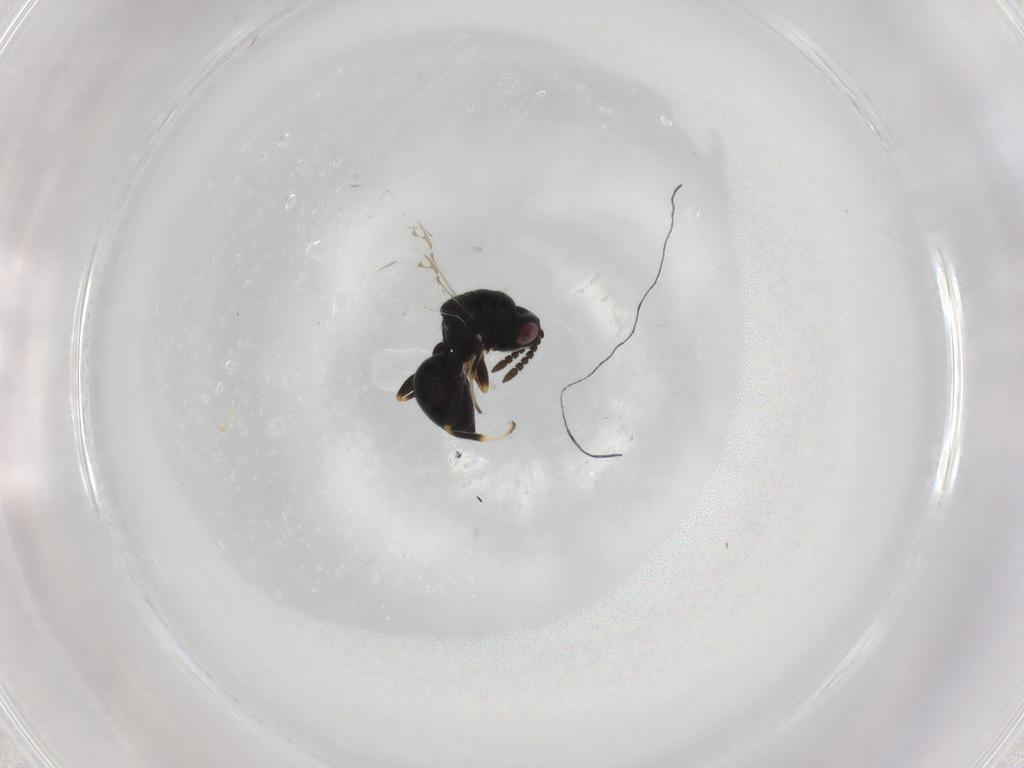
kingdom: Animalia
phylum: Arthropoda
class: Insecta
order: Hymenoptera
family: Eurytomidae
